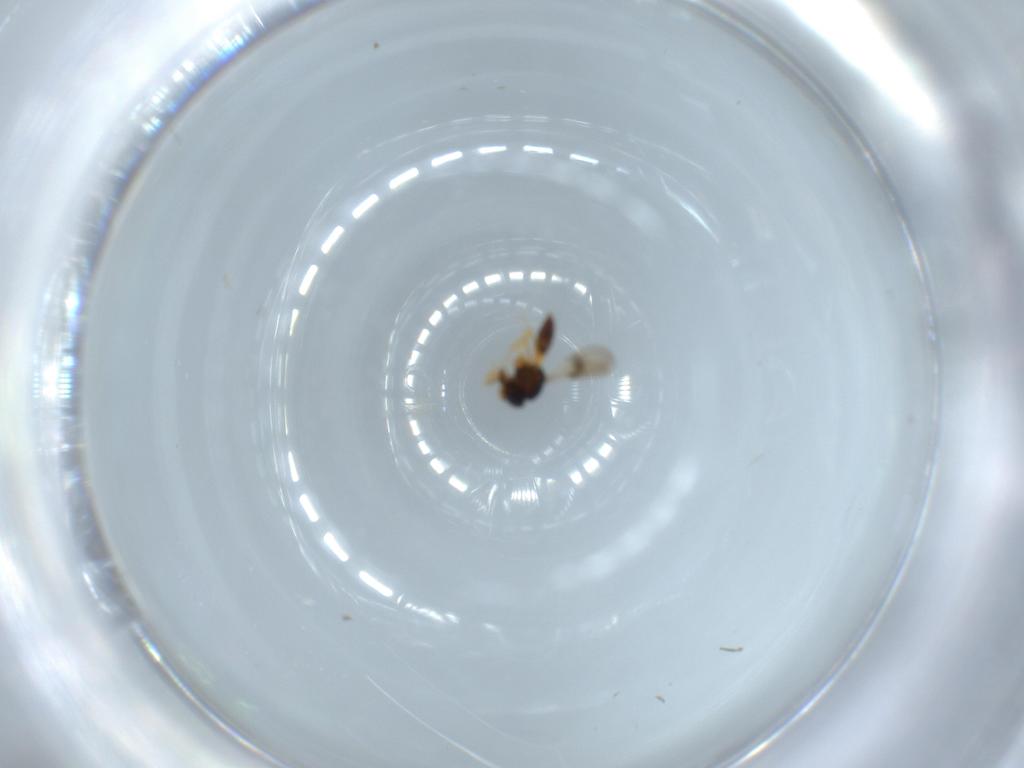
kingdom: Animalia
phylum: Arthropoda
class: Insecta
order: Hymenoptera
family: Scelionidae
